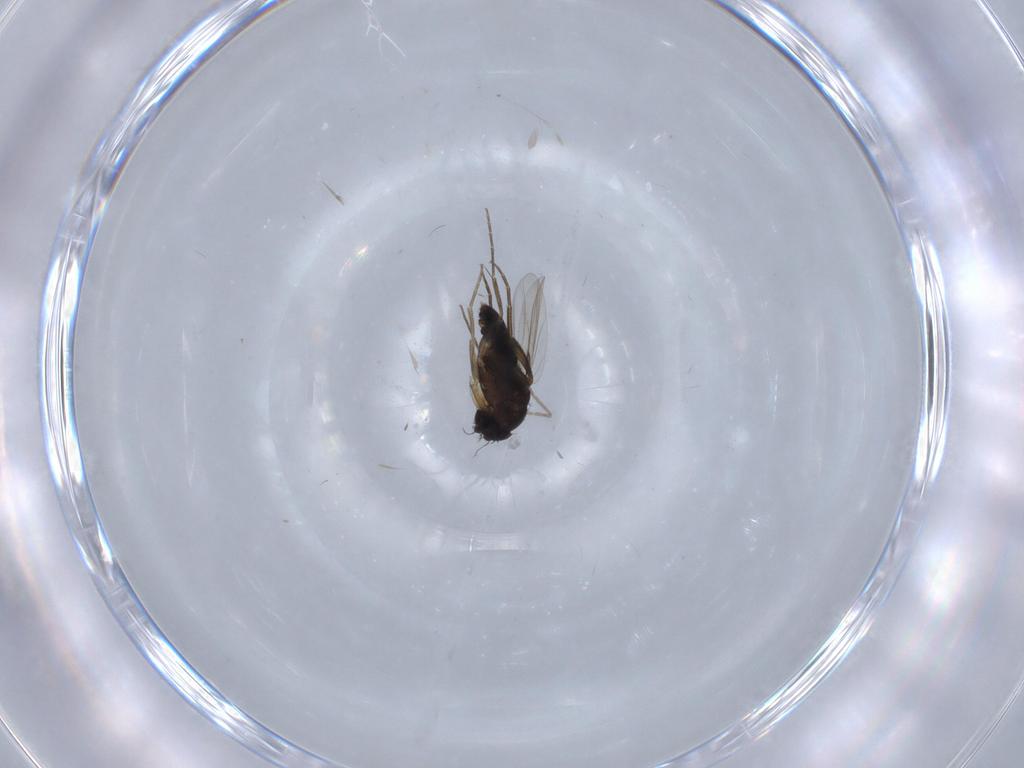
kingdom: Animalia
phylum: Arthropoda
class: Insecta
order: Diptera
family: Phoridae
